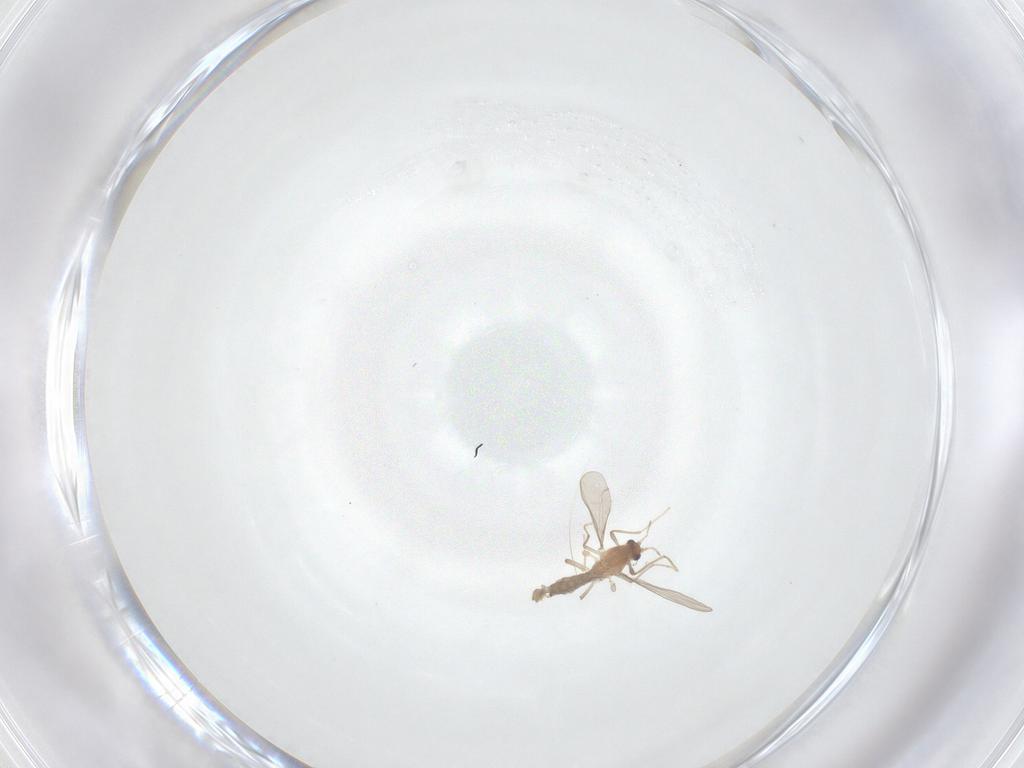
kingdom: Animalia
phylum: Arthropoda
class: Insecta
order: Diptera
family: Chironomidae
